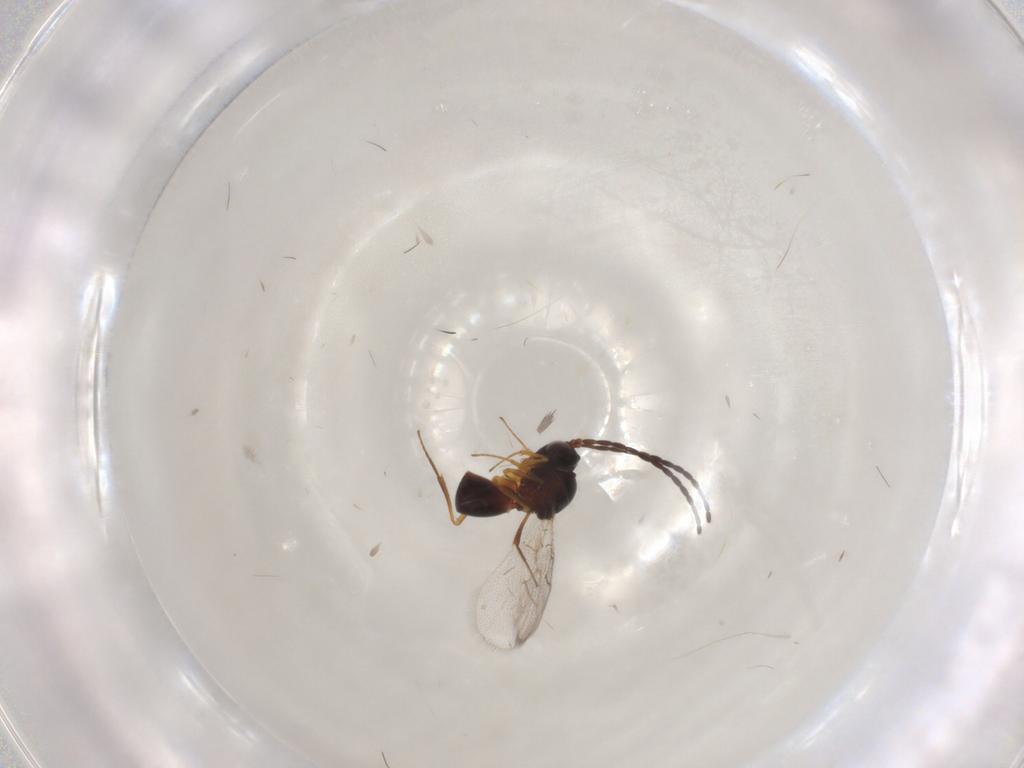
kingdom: Animalia
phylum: Arthropoda
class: Insecta
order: Hymenoptera
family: Figitidae
